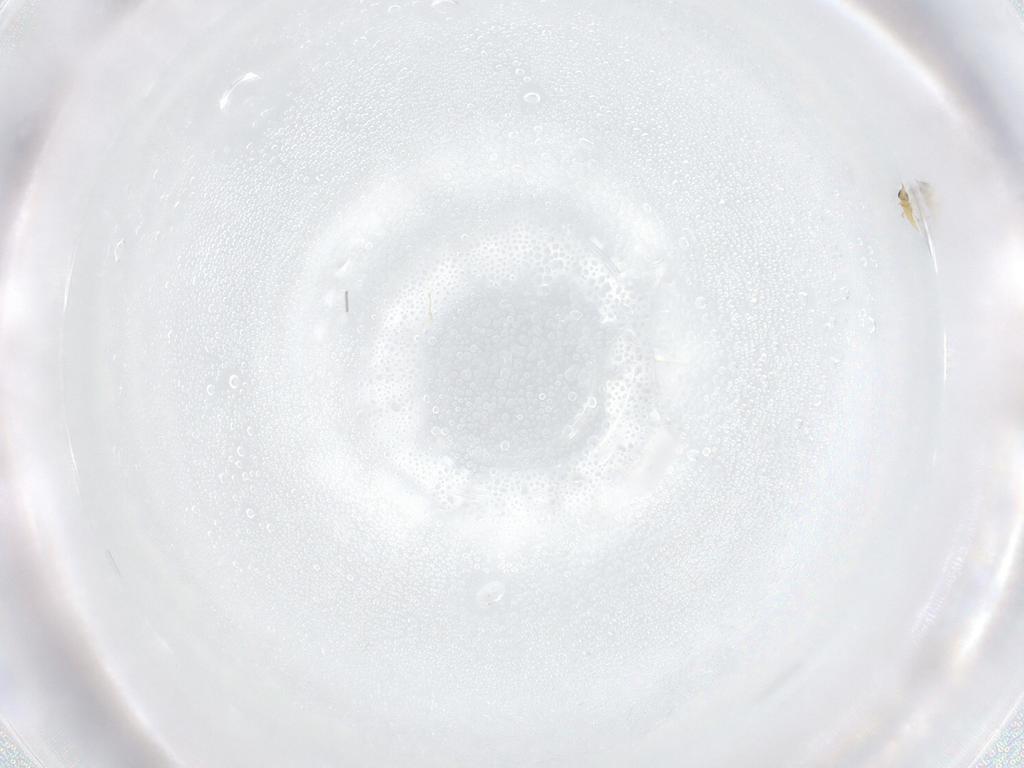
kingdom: Animalia
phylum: Arthropoda
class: Insecta
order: Hymenoptera
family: Formicidae
